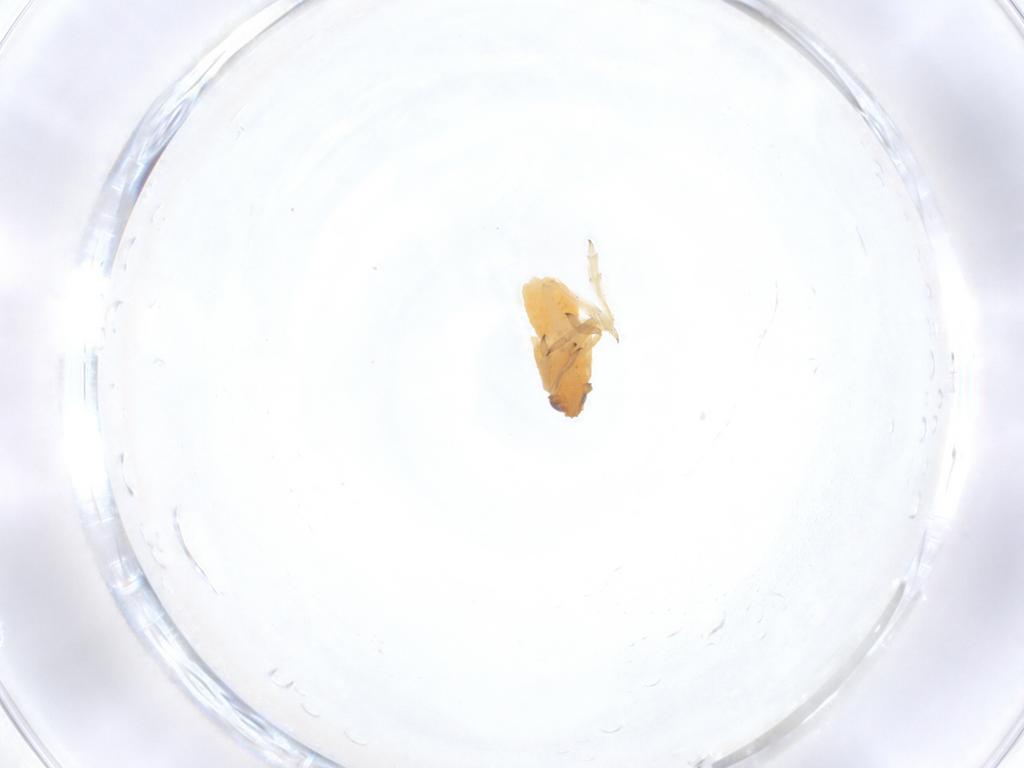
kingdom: Animalia
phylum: Arthropoda
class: Insecta
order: Hemiptera
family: Delphacidae
